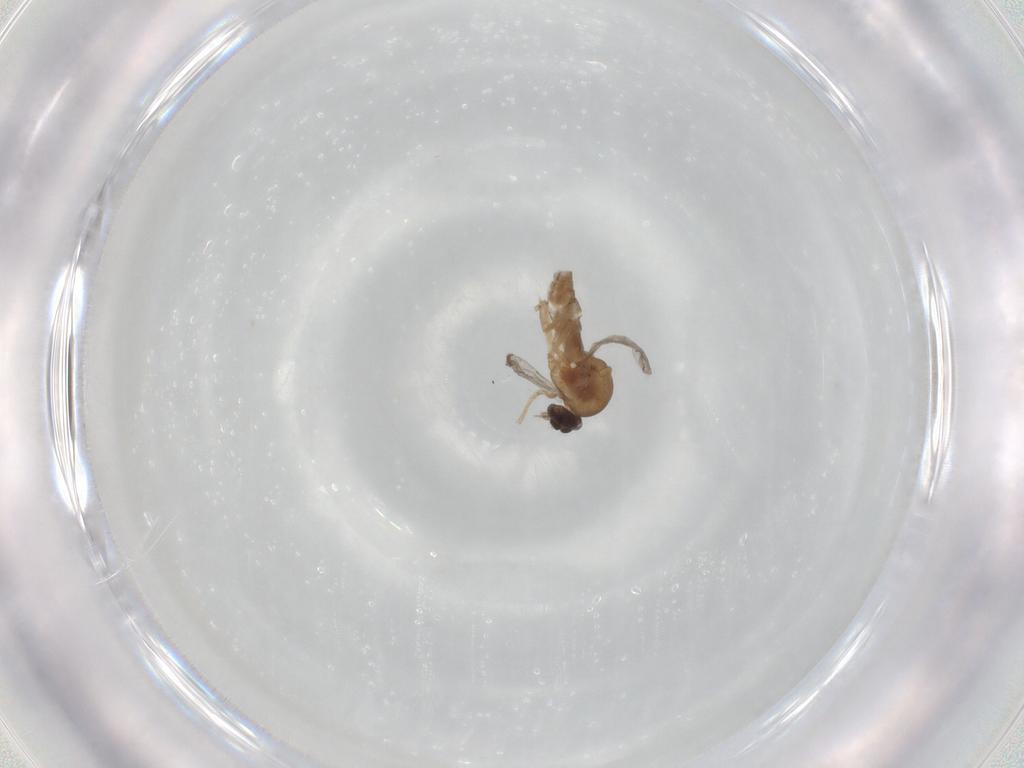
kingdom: Animalia
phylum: Arthropoda
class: Insecta
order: Diptera
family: Cecidomyiidae
